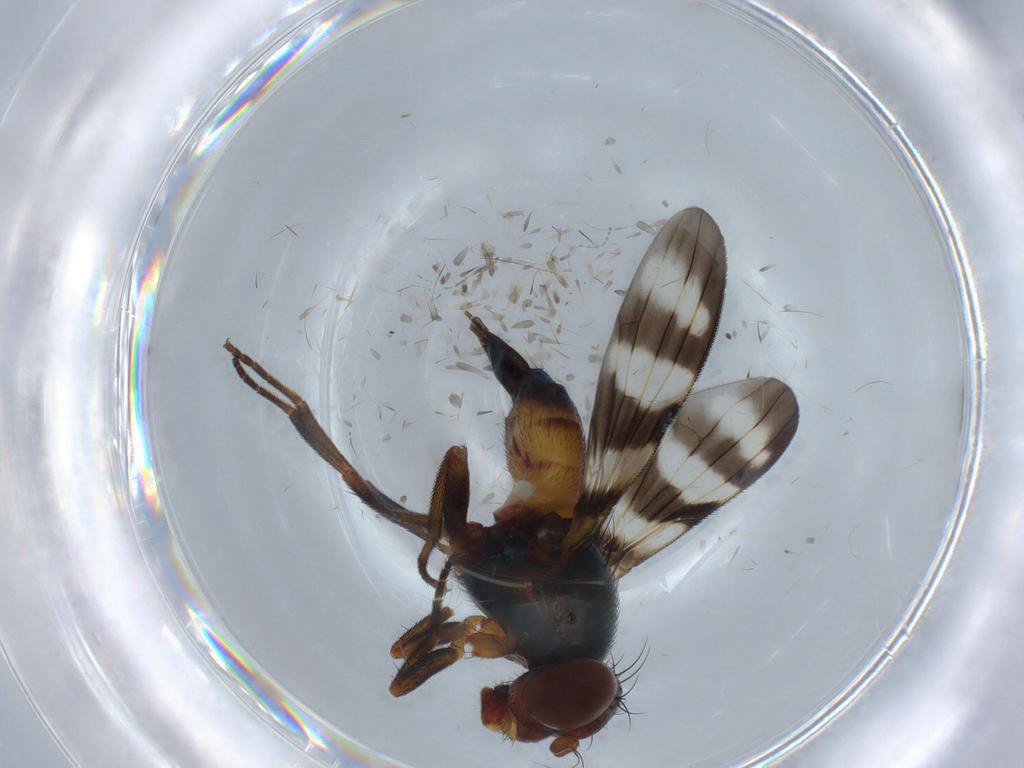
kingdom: Animalia
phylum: Arthropoda
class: Insecta
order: Diptera
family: Cecidomyiidae
